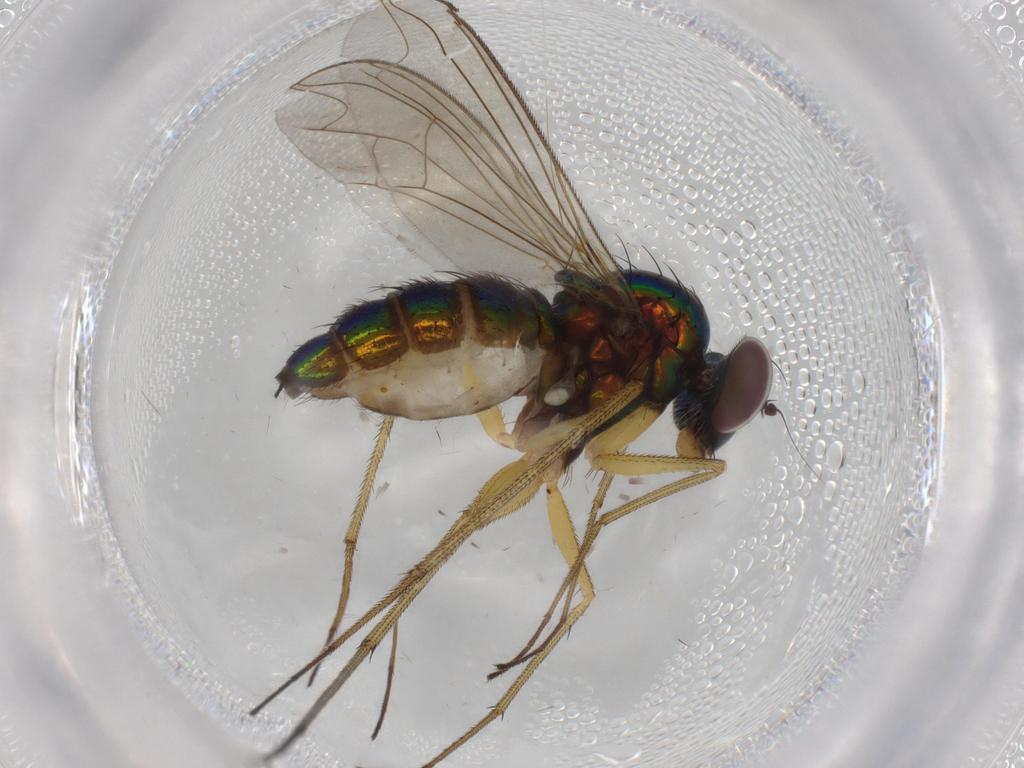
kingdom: Animalia
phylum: Arthropoda
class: Insecta
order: Diptera
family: Dolichopodidae
